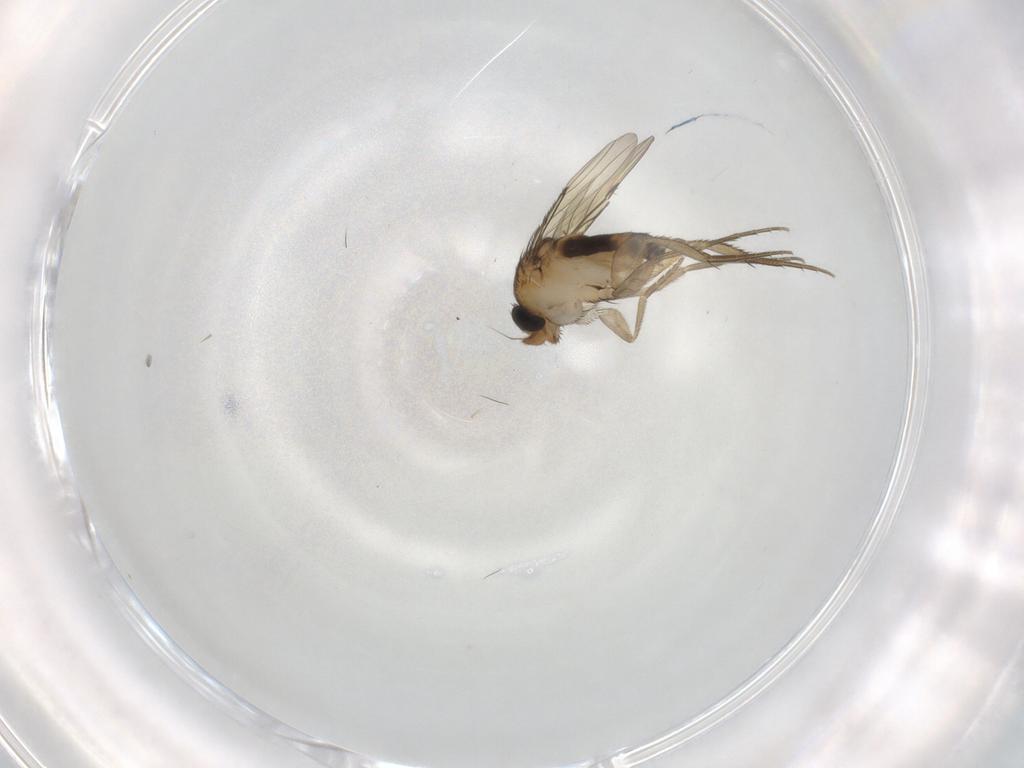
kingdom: Animalia
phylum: Arthropoda
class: Insecta
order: Diptera
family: Phoridae
